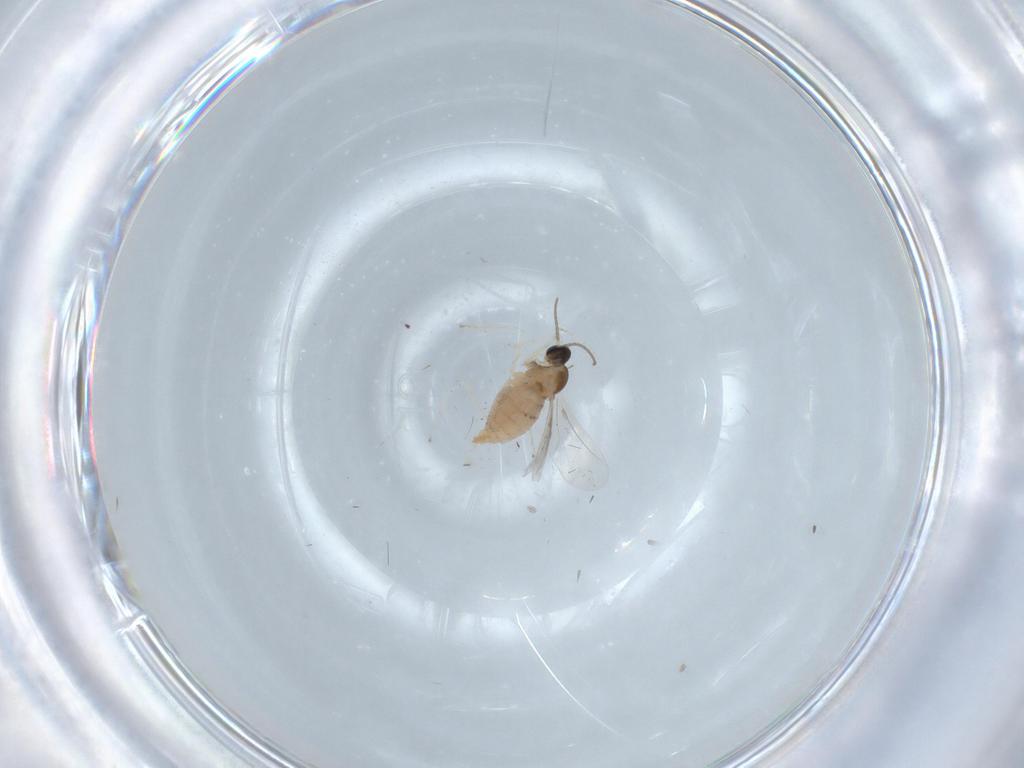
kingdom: Animalia
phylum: Arthropoda
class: Insecta
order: Diptera
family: Cecidomyiidae
